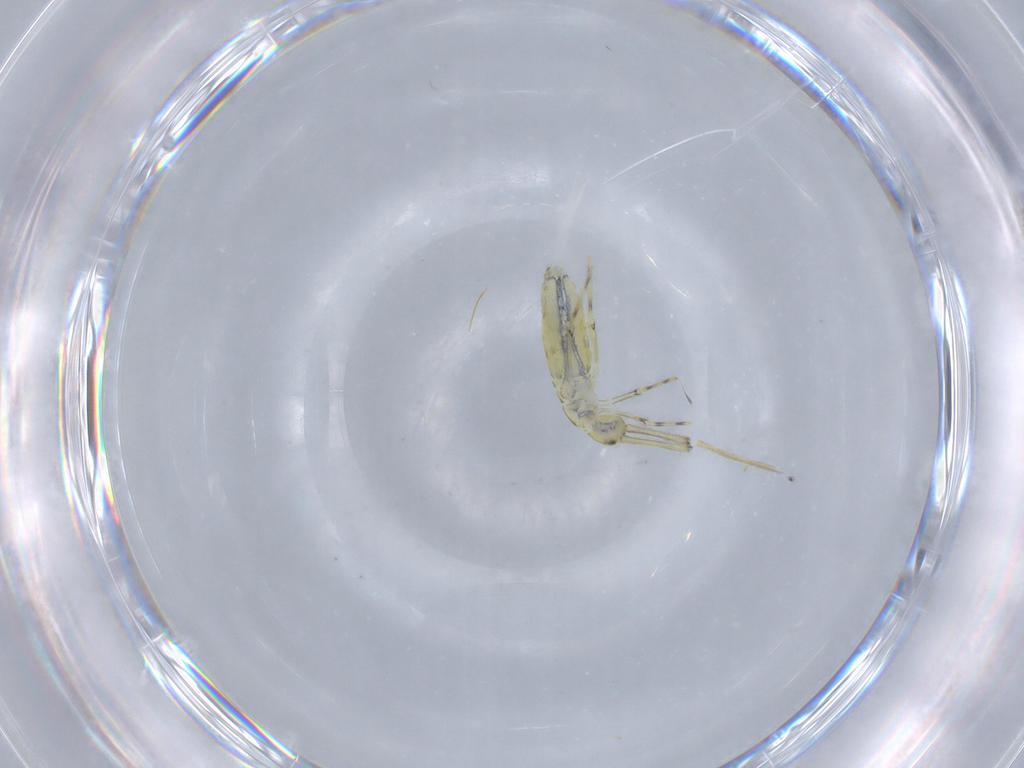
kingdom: Animalia
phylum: Arthropoda
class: Collembola
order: Entomobryomorpha
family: Paronellidae
